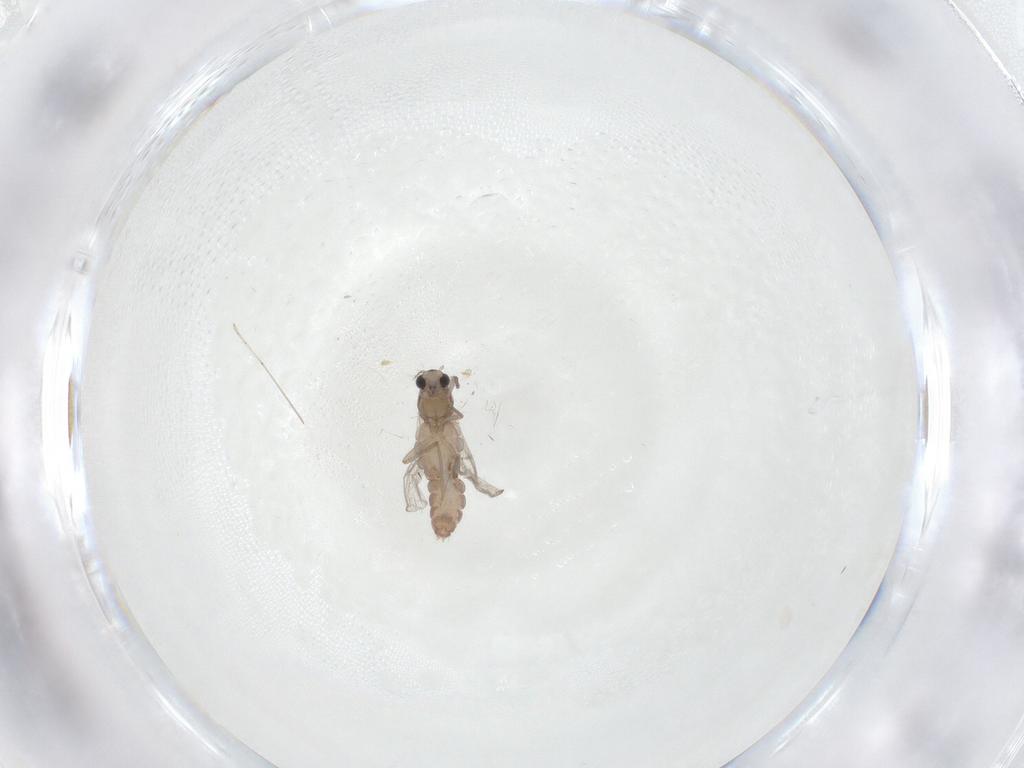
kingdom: Animalia
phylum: Arthropoda
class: Insecta
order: Diptera
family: Chironomidae
